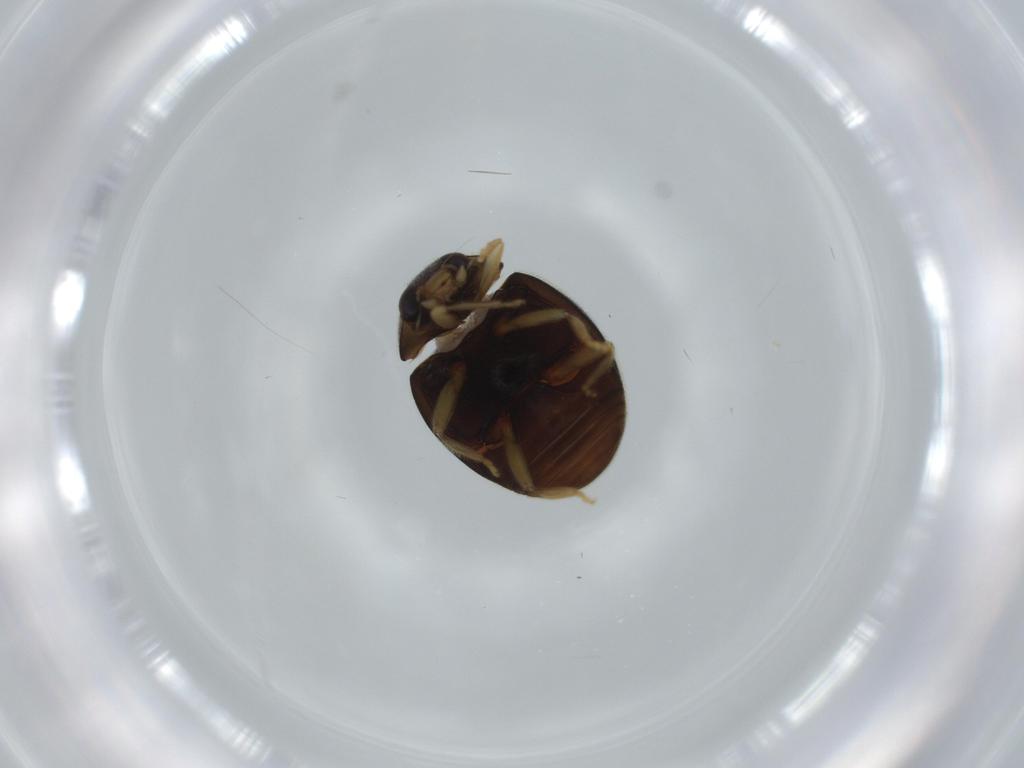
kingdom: Animalia
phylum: Arthropoda
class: Insecta
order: Coleoptera
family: Coccinellidae
